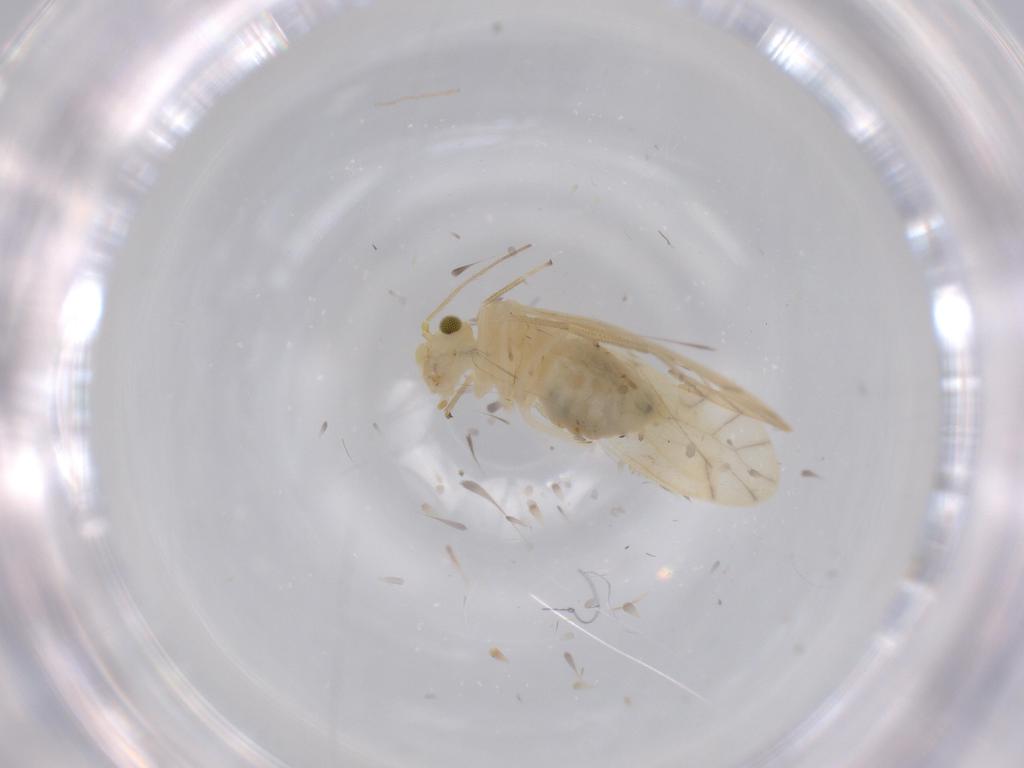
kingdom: Animalia
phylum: Arthropoda
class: Insecta
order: Psocodea
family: Caeciliusidae
